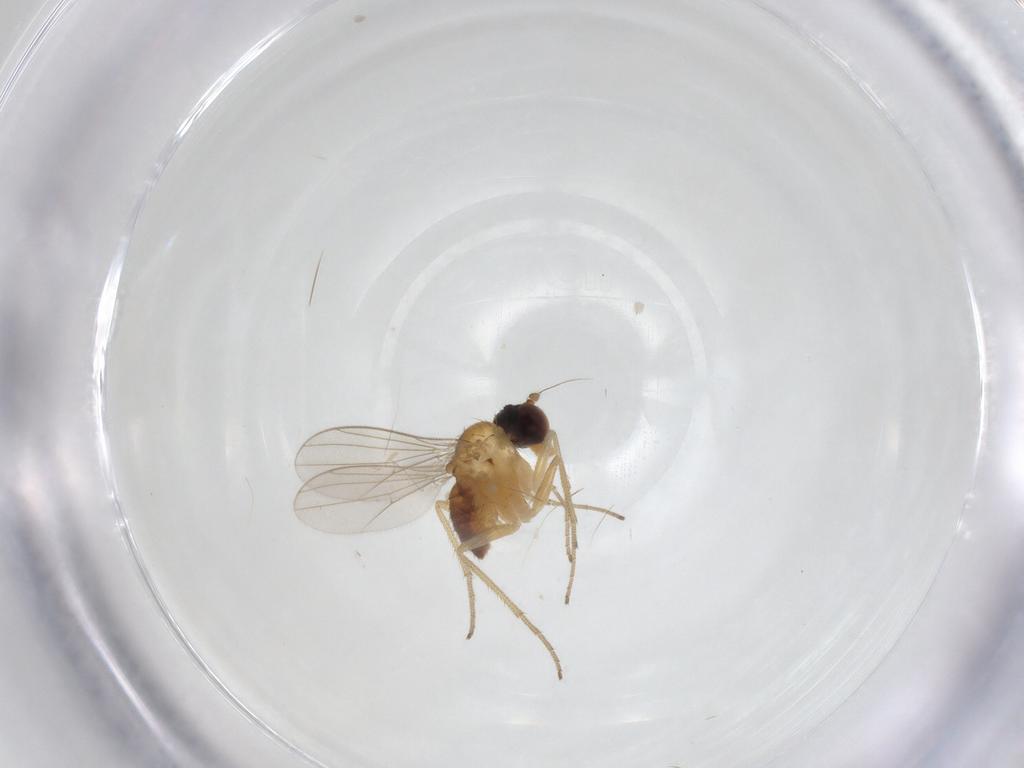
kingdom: Animalia
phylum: Arthropoda
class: Insecta
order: Diptera
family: Dolichopodidae
